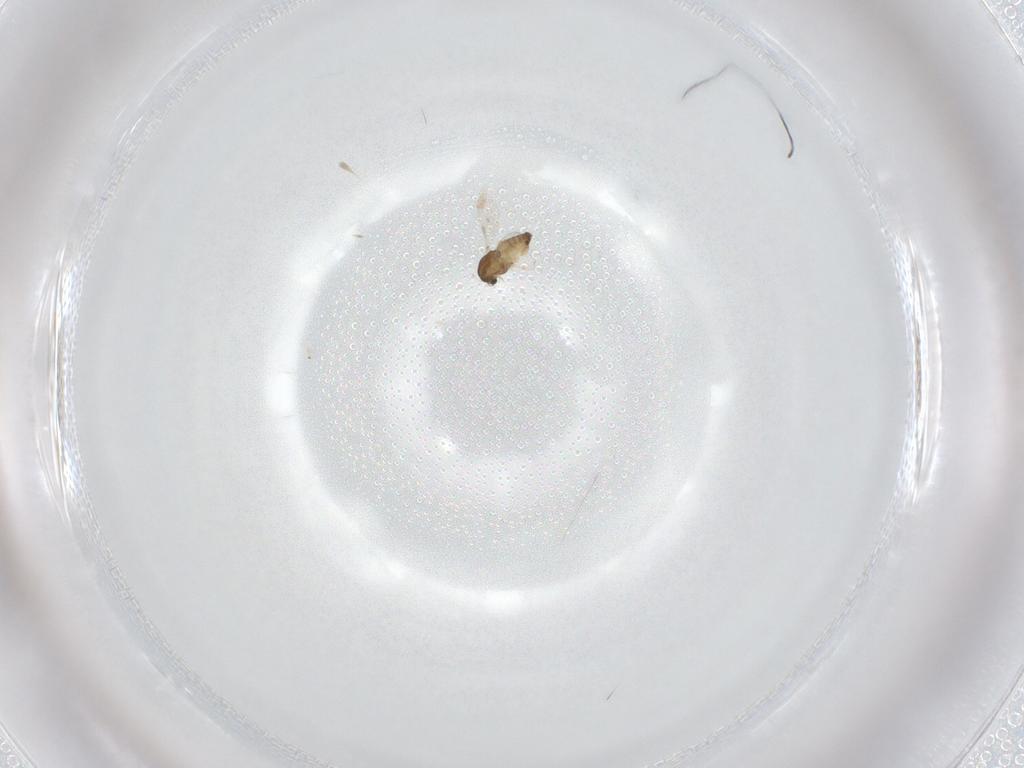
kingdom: Animalia
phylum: Arthropoda
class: Insecta
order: Diptera
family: Chironomidae
